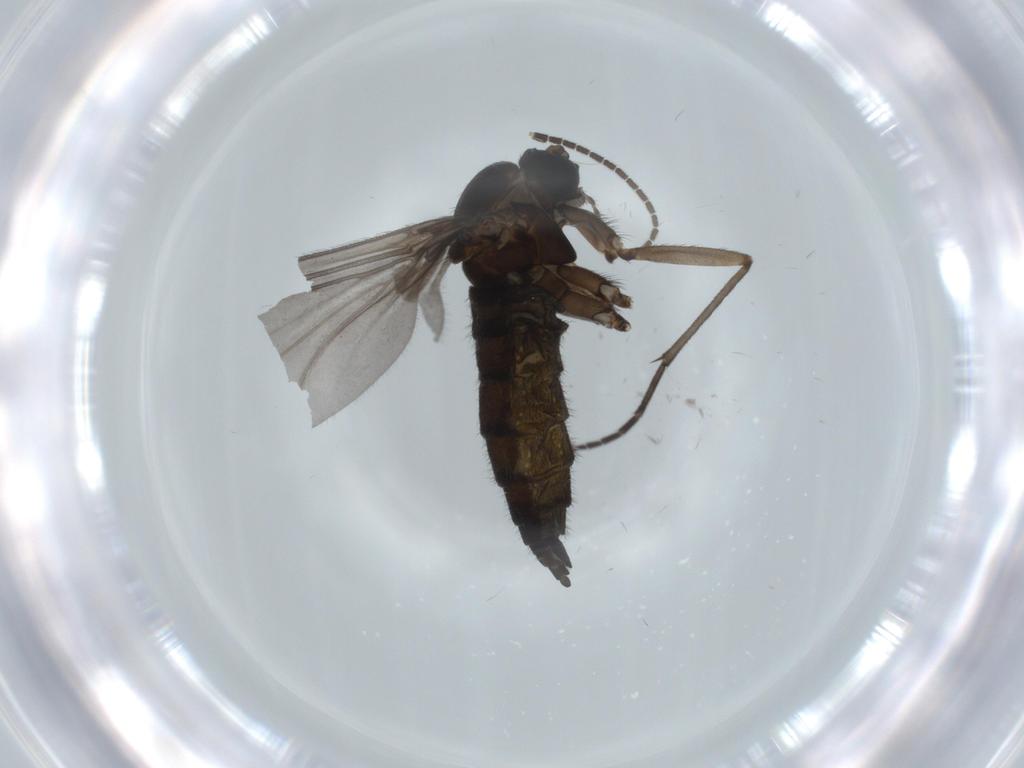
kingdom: Animalia
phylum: Arthropoda
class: Insecta
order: Diptera
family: Sciaridae
